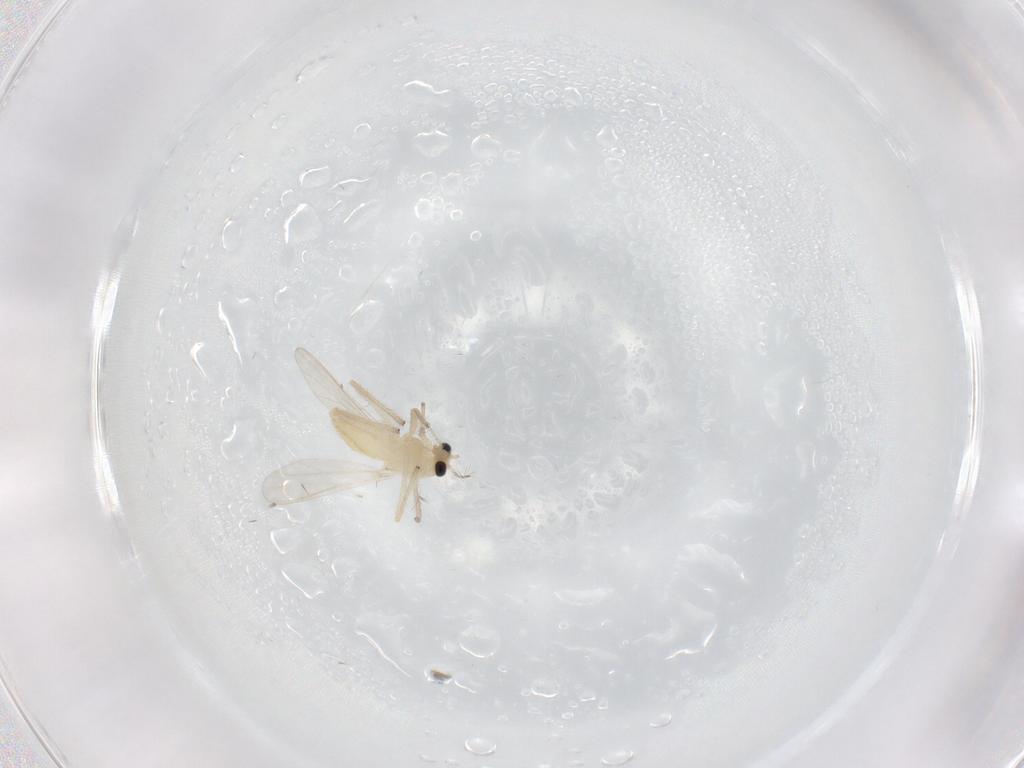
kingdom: Animalia
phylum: Arthropoda
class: Insecta
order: Diptera
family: Chironomidae
